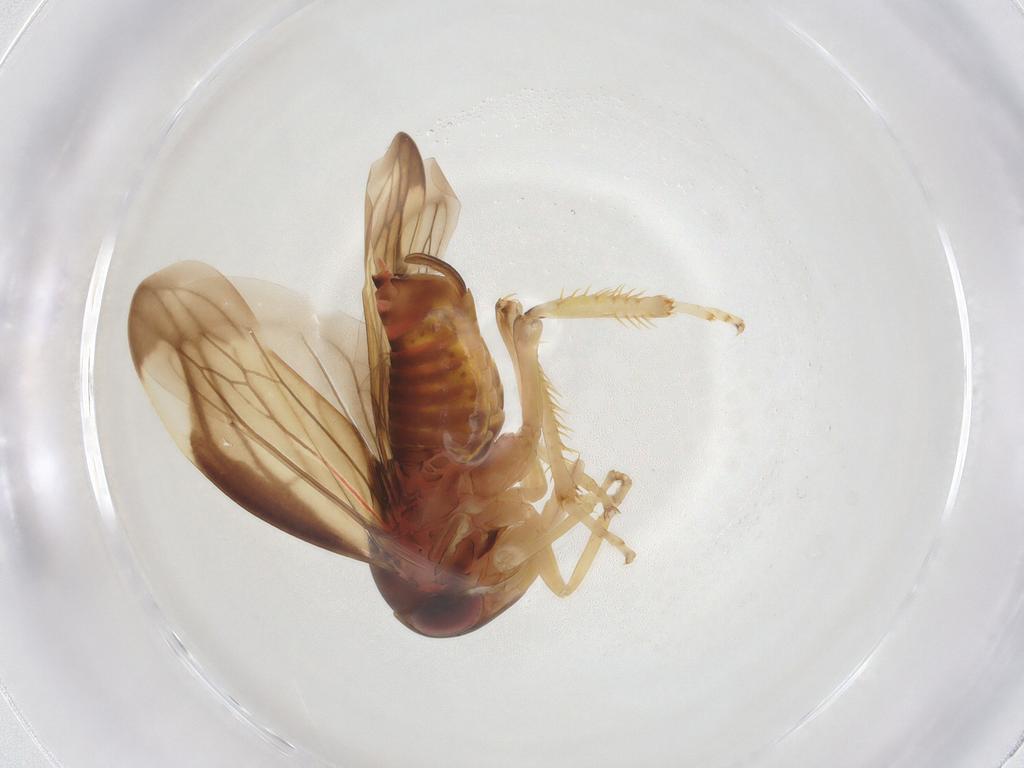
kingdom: Animalia
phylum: Arthropoda
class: Insecta
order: Hemiptera
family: Cicadellidae
